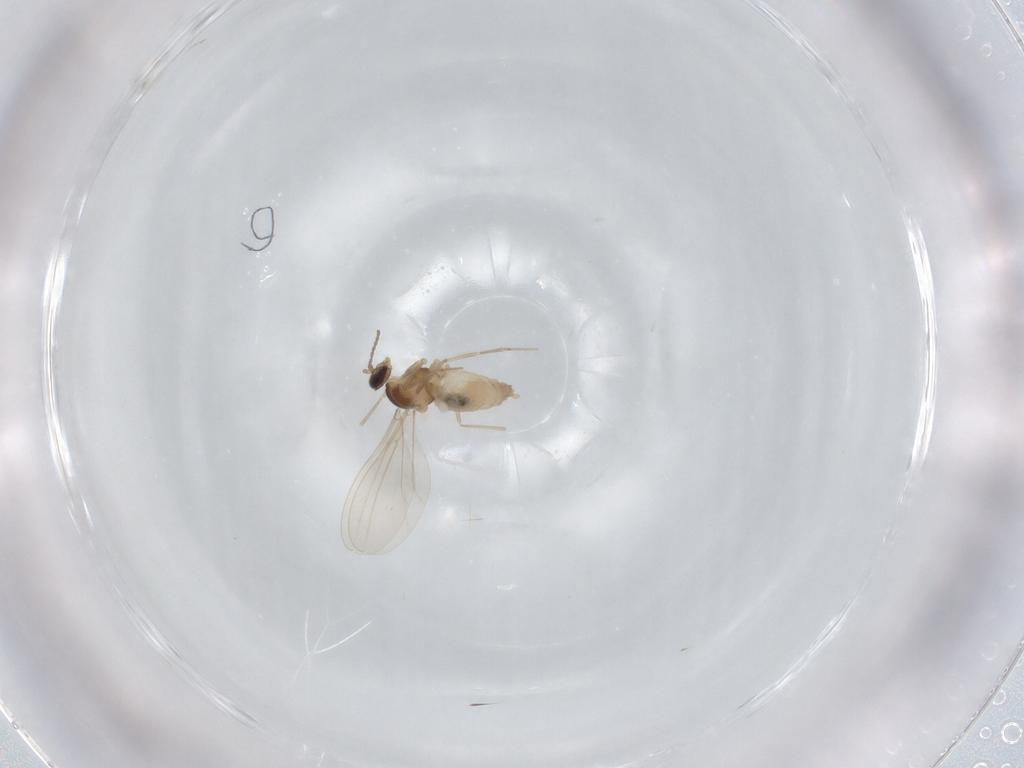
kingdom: Animalia
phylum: Arthropoda
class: Insecta
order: Diptera
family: Cecidomyiidae
